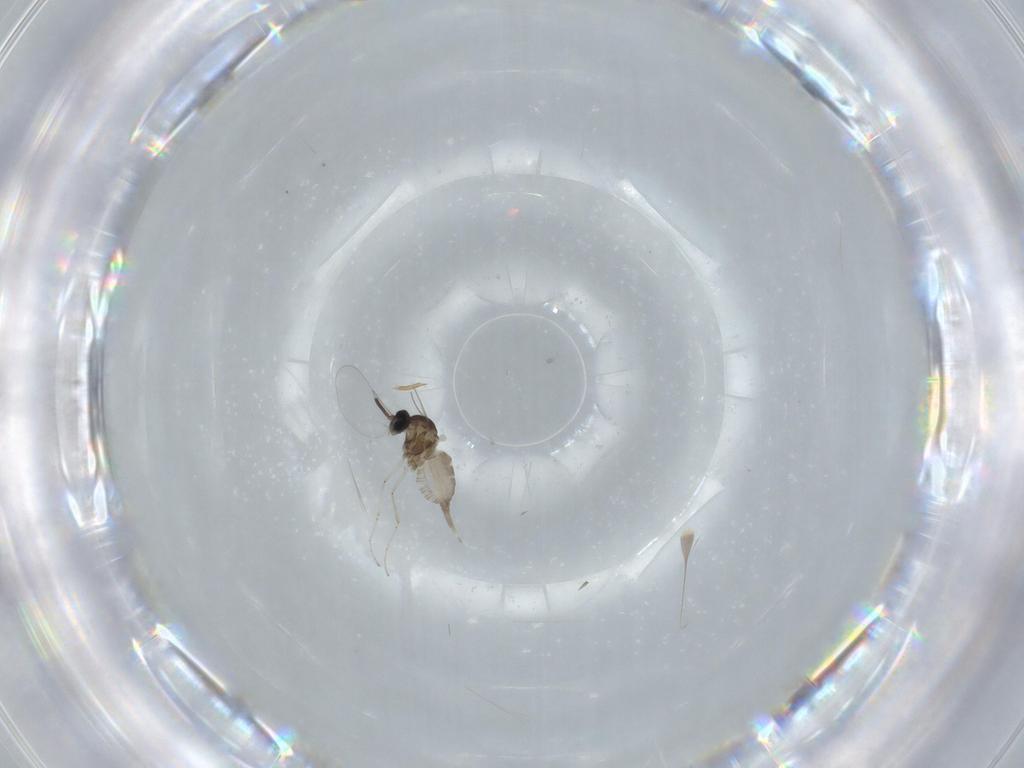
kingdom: Animalia
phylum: Arthropoda
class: Insecta
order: Diptera
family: Cecidomyiidae
